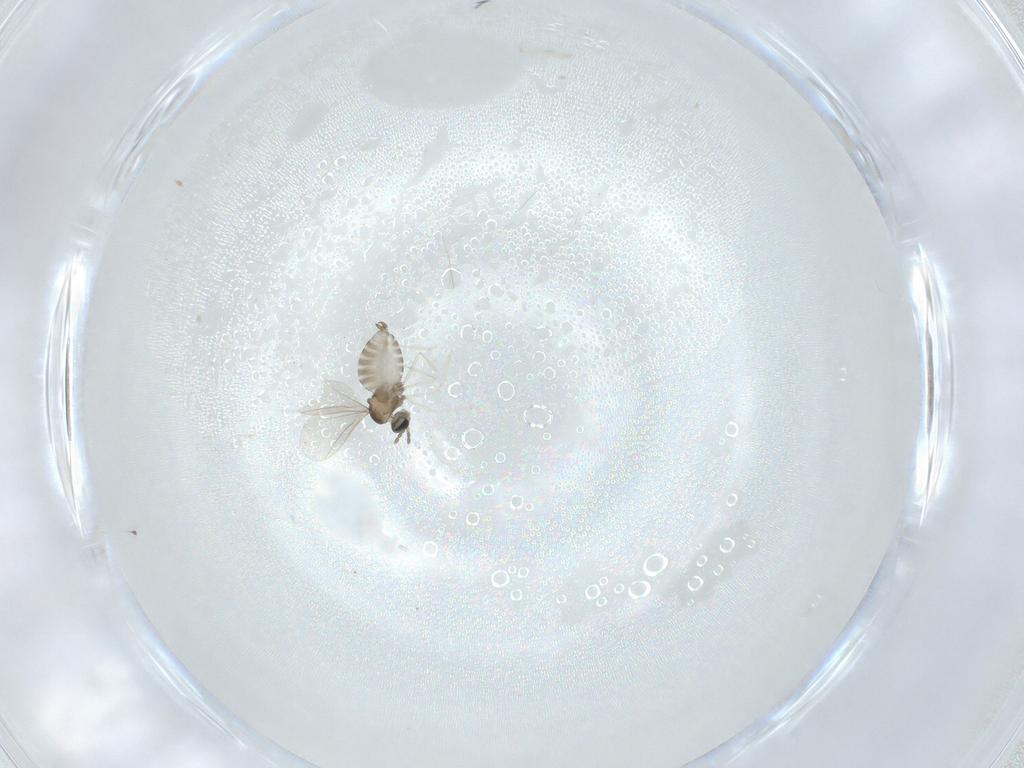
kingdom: Animalia
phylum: Arthropoda
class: Insecta
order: Diptera
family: Cecidomyiidae
